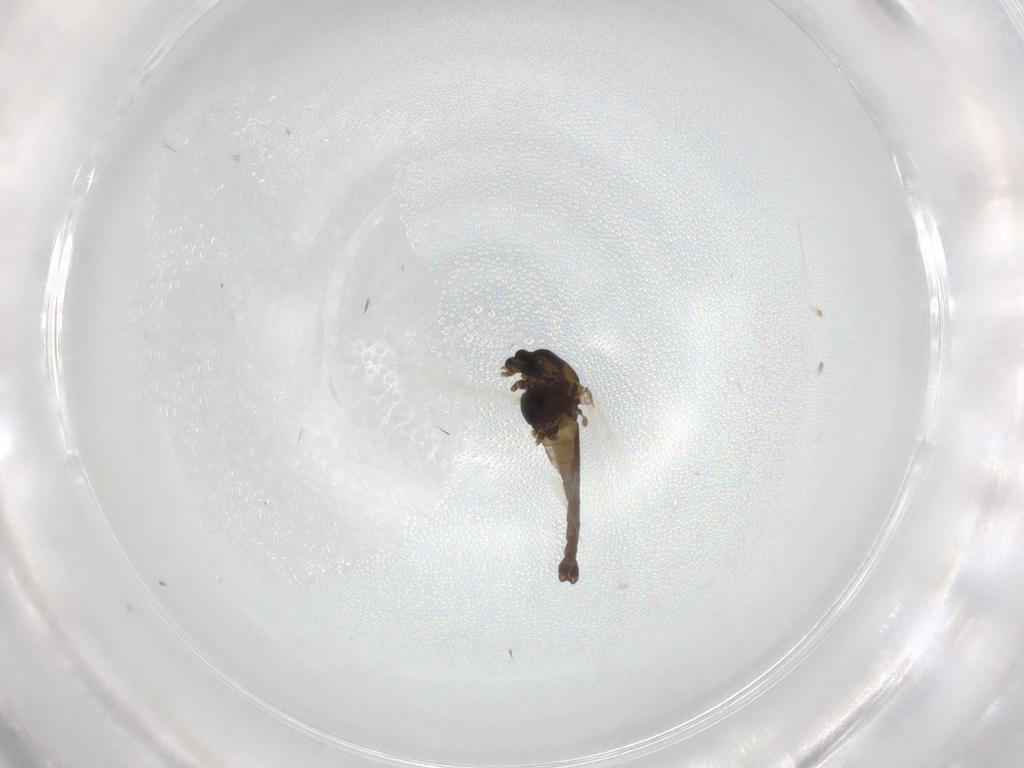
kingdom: Animalia
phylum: Arthropoda
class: Insecta
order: Diptera
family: Chironomidae
